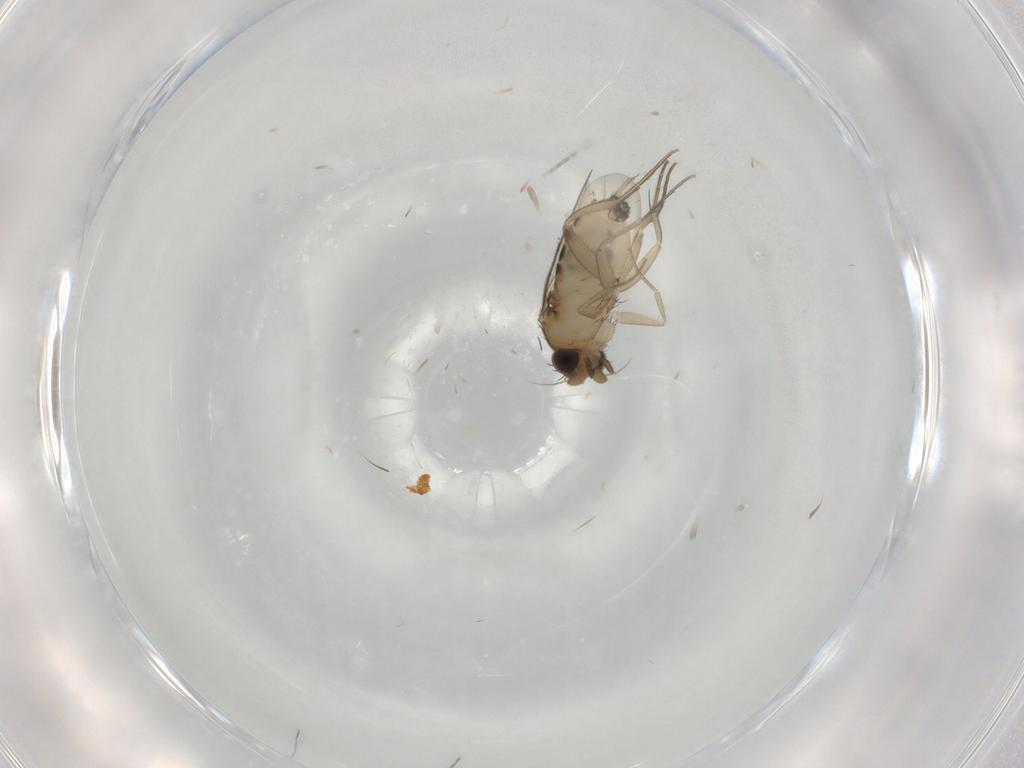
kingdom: Animalia
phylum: Arthropoda
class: Insecta
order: Diptera
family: Phoridae
